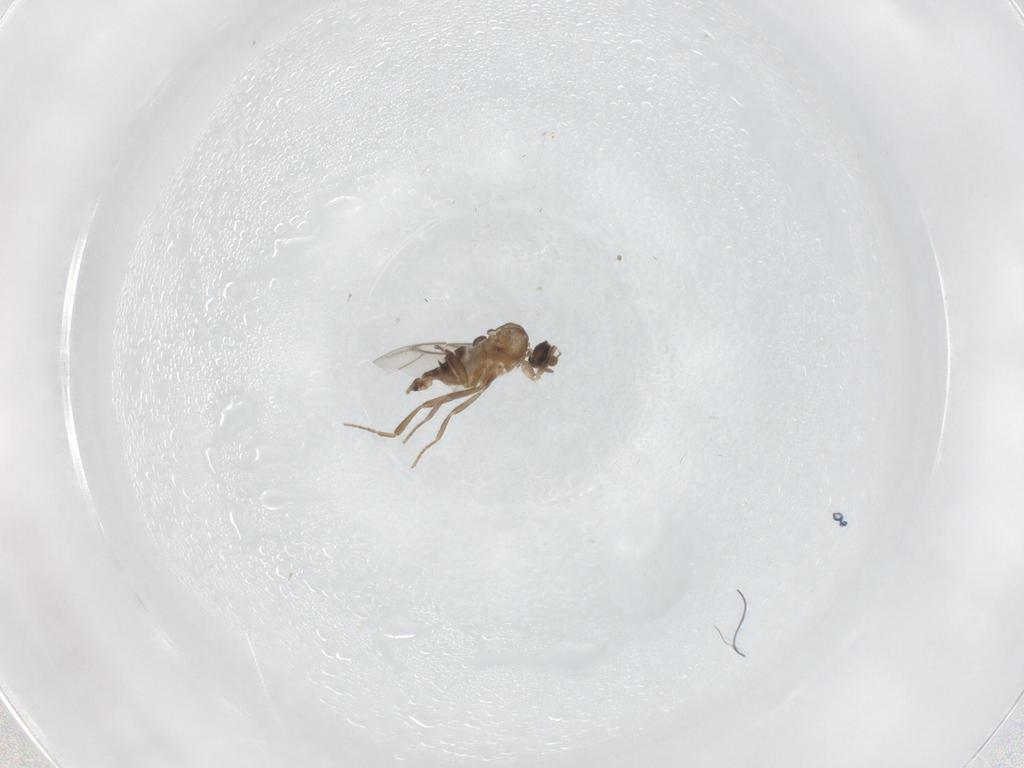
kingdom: Animalia
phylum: Arthropoda
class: Insecta
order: Diptera
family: Phoridae
